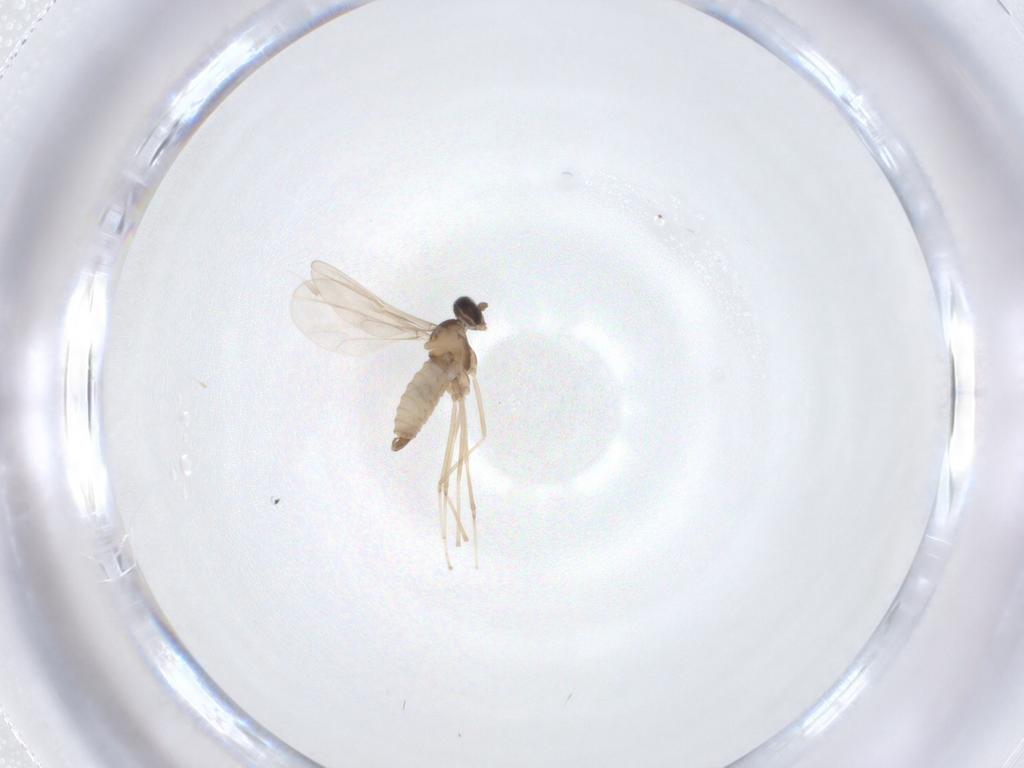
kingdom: Animalia
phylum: Arthropoda
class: Insecta
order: Diptera
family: Cecidomyiidae
